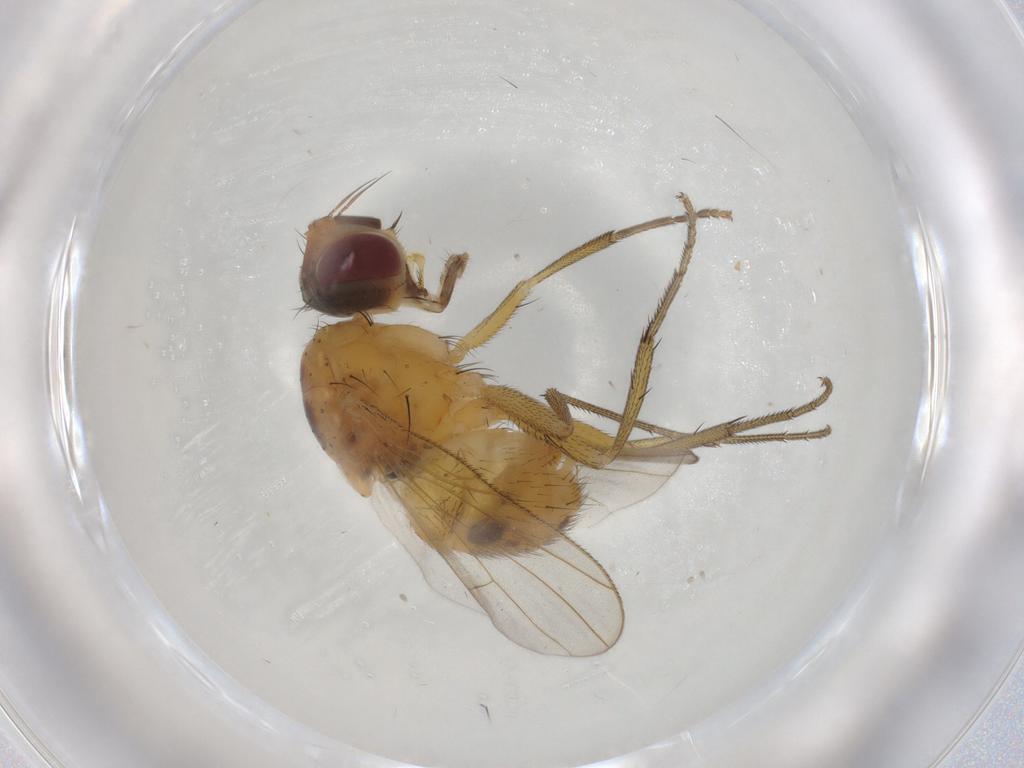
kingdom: Animalia
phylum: Arthropoda
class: Insecta
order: Diptera
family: Muscidae
